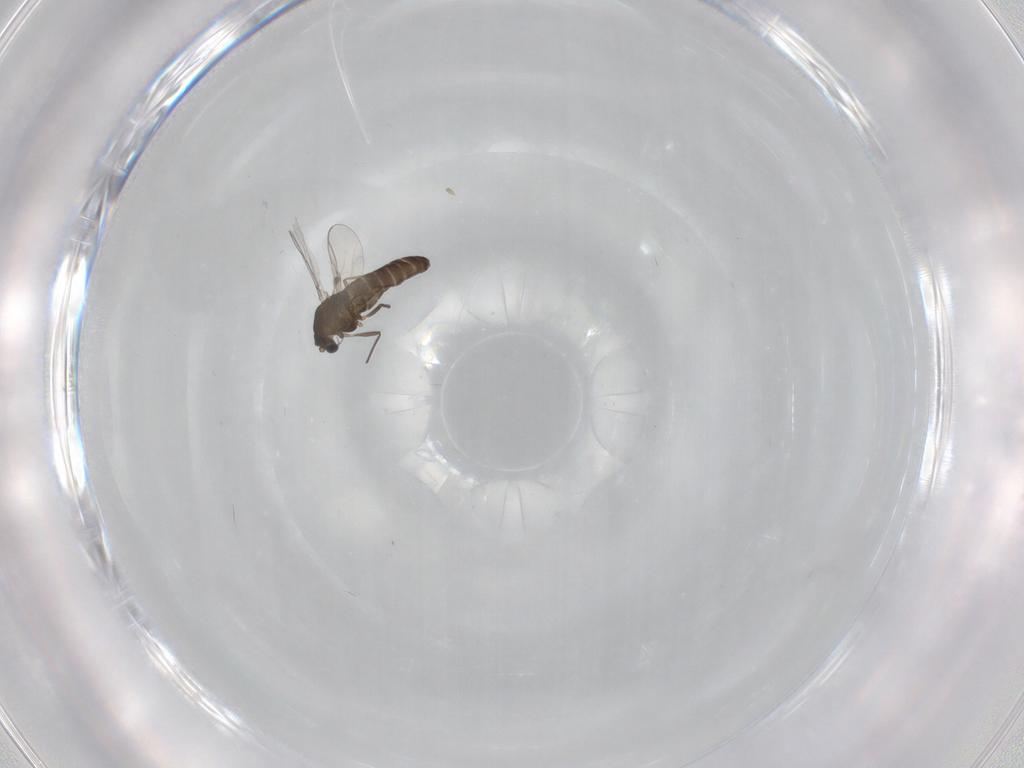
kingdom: Animalia
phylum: Arthropoda
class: Insecta
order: Diptera
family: Chironomidae
